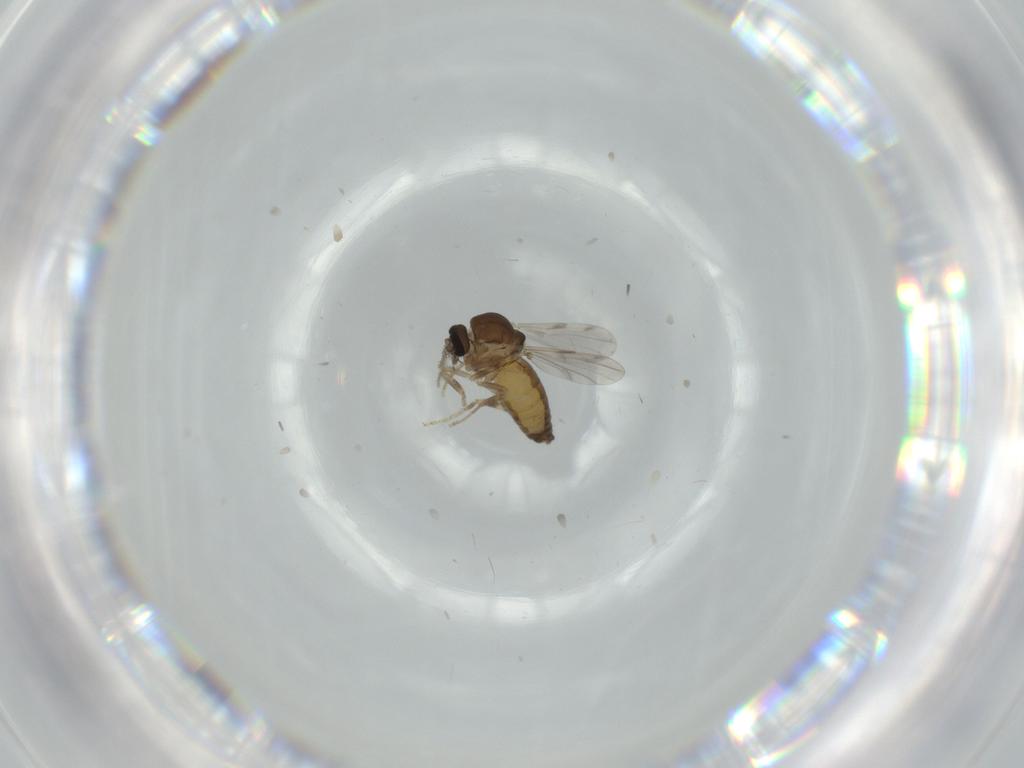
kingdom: Animalia
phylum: Arthropoda
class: Insecta
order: Diptera
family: Ceratopogonidae
